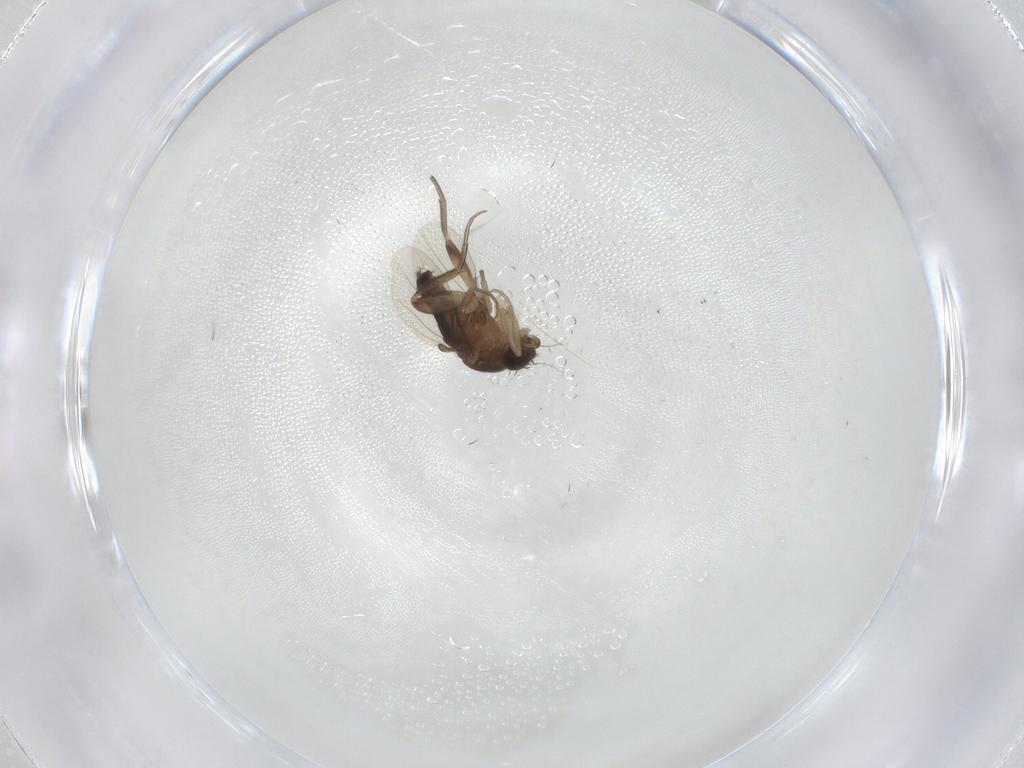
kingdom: Animalia
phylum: Arthropoda
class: Insecta
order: Diptera
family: Phoridae
